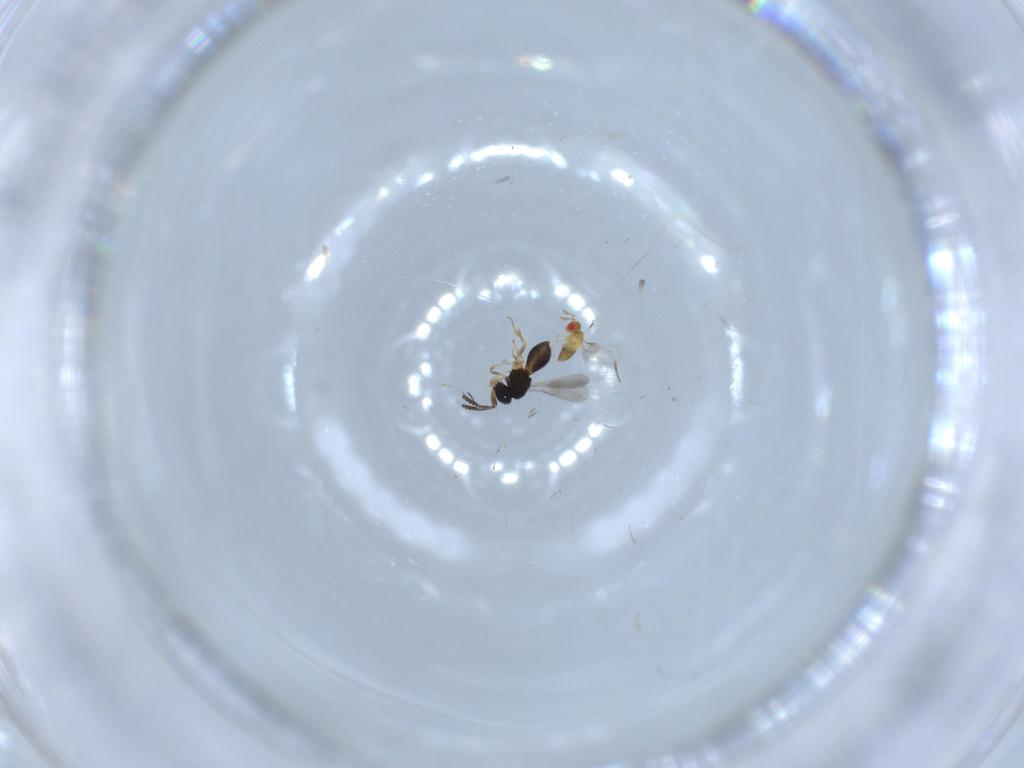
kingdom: Animalia
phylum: Arthropoda
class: Insecta
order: Hymenoptera
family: Trichogrammatidae
